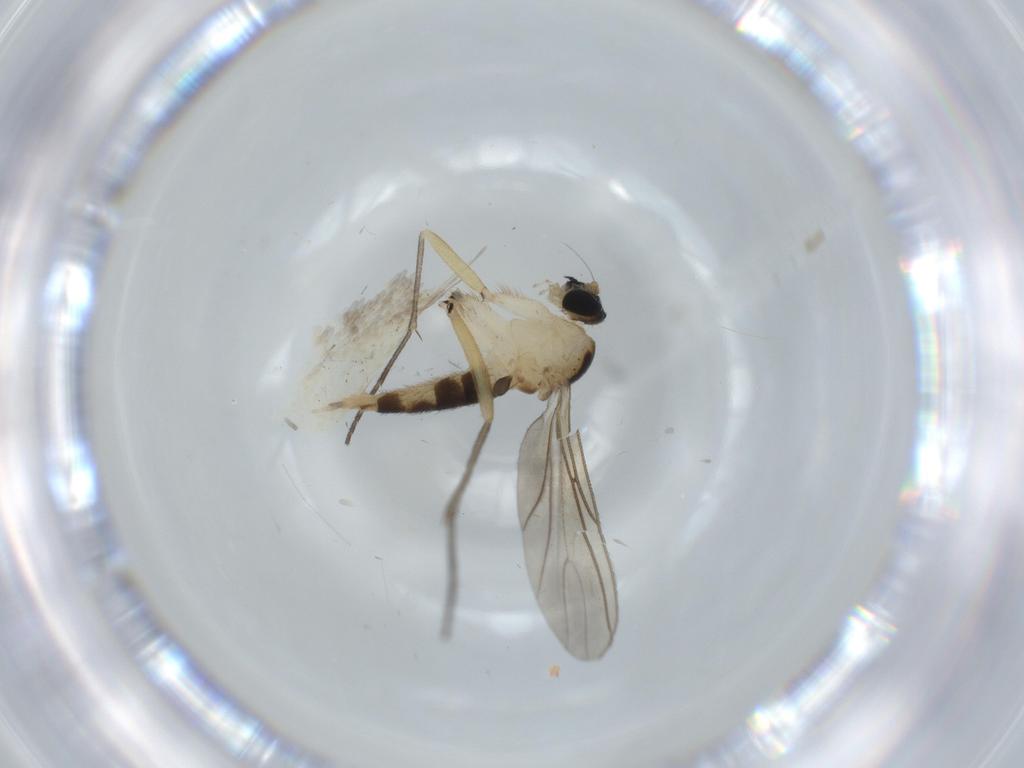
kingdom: Animalia
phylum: Arthropoda
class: Insecta
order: Diptera
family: Sciaridae
